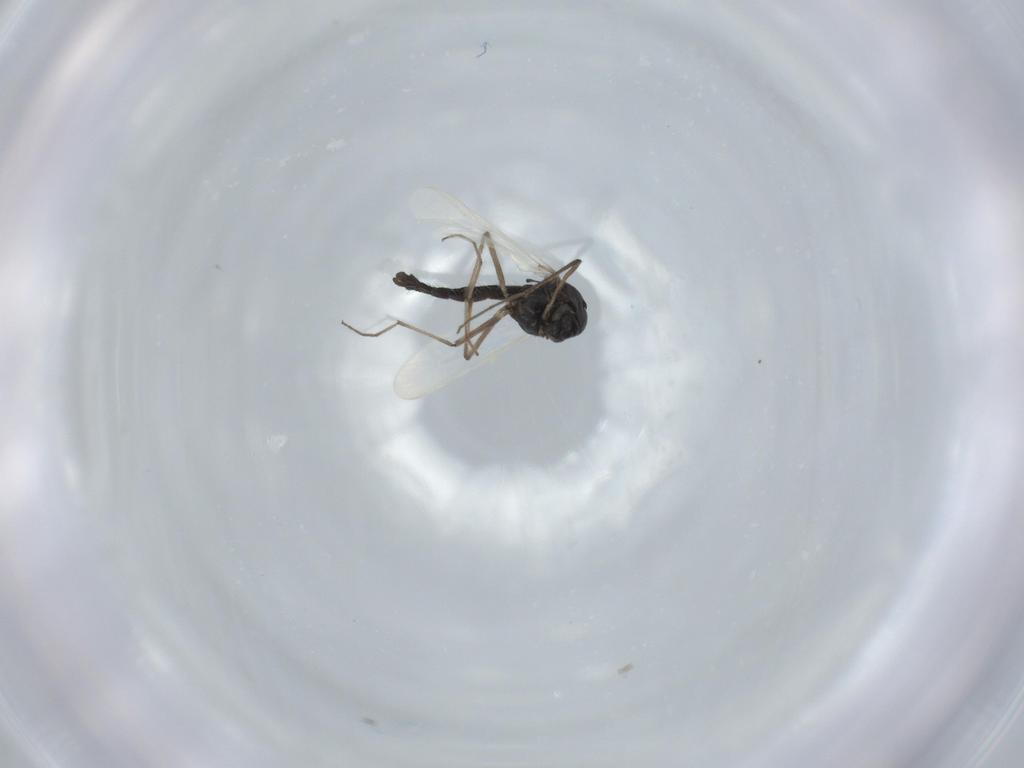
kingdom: Animalia
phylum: Arthropoda
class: Insecta
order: Diptera
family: Chironomidae
